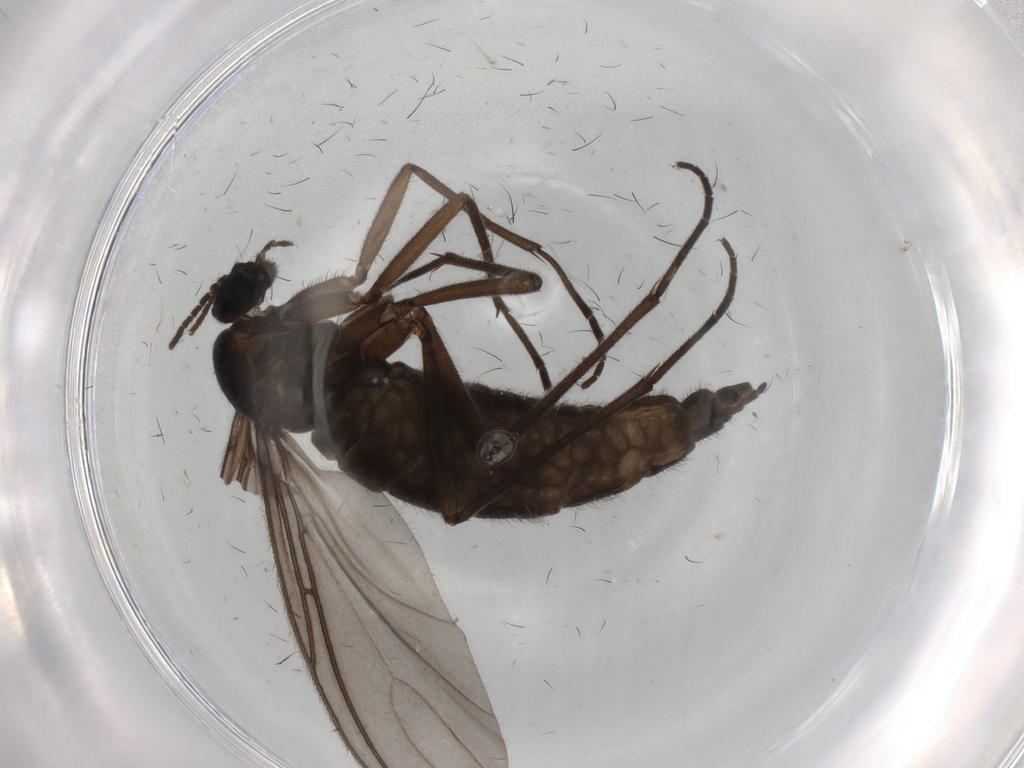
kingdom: Animalia
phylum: Arthropoda
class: Insecta
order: Diptera
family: Sciaridae
